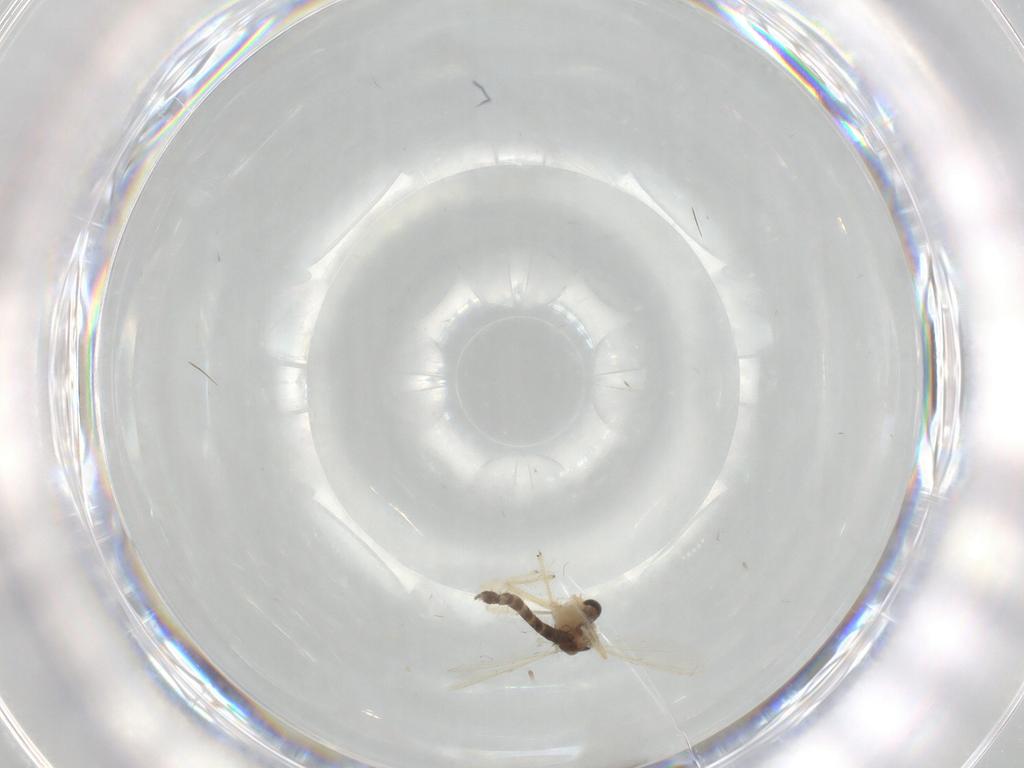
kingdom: Animalia
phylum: Arthropoda
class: Insecta
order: Diptera
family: Chironomidae
